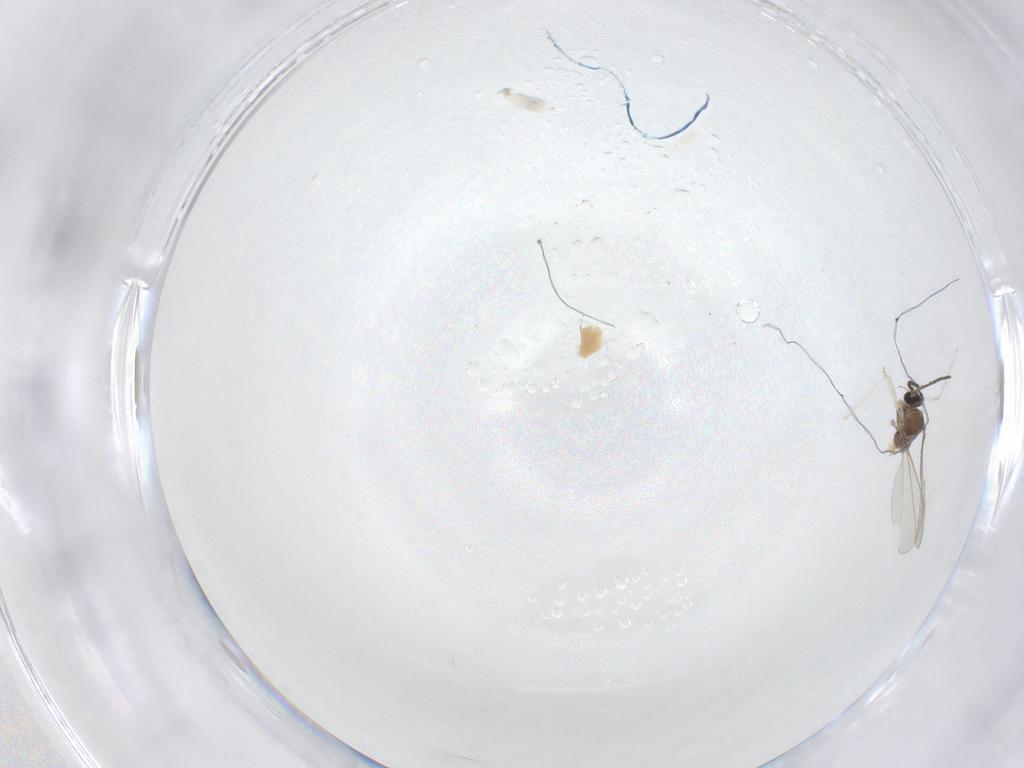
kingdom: Animalia
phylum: Arthropoda
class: Insecta
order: Diptera
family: Cecidomyiidae
